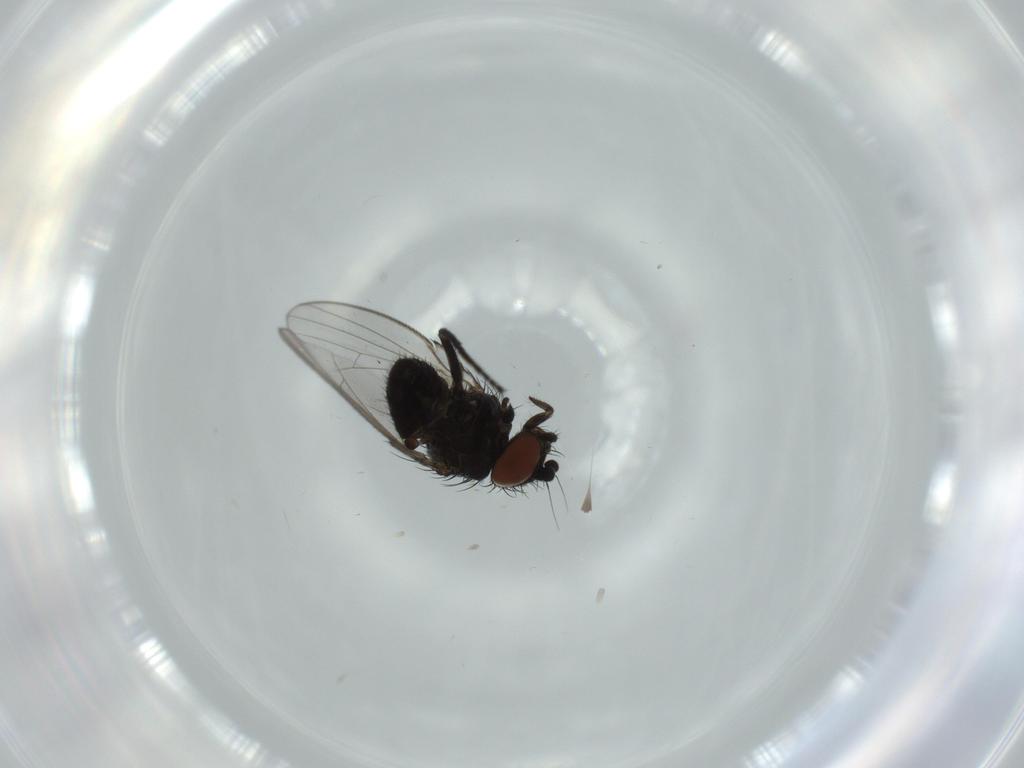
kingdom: Animalia
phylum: Arthropoda
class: Insecta
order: Diptera
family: Milichiidae
